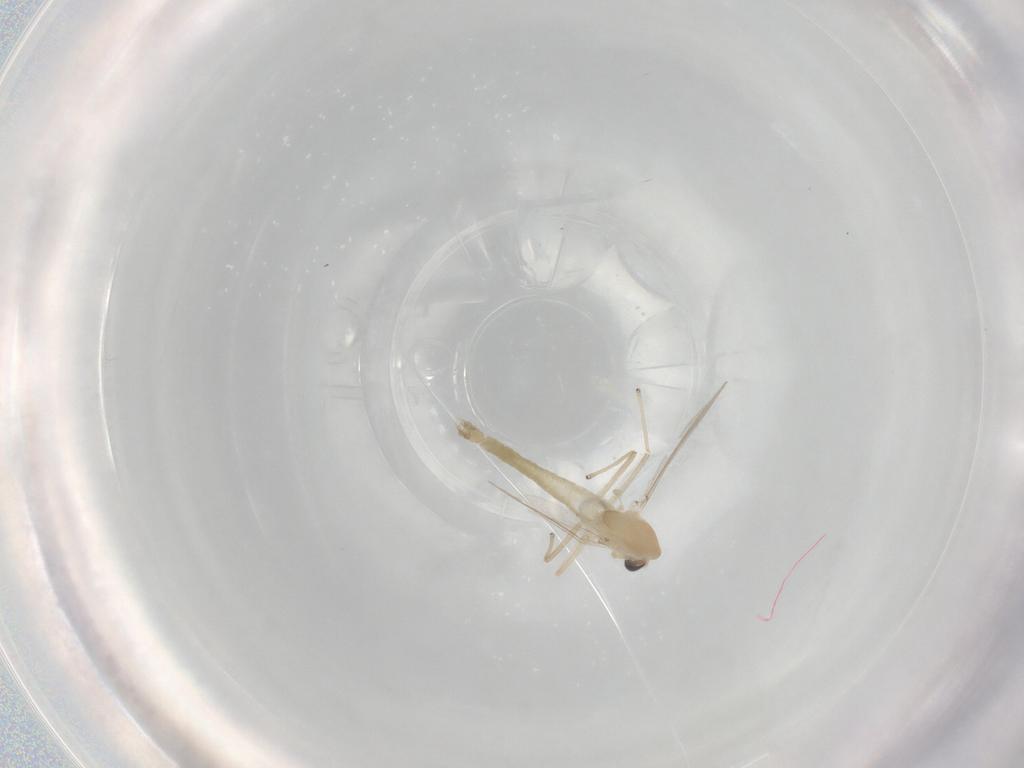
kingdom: Animalia
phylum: Arthropoda
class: Insecta
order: Diptera
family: Chironomidae
